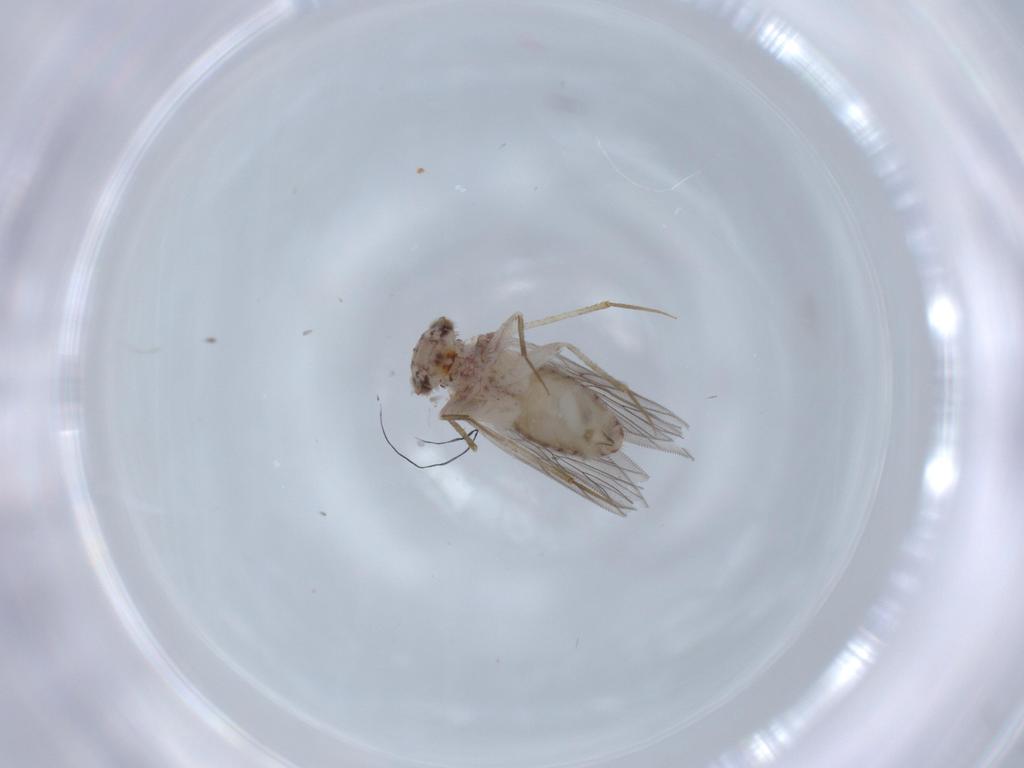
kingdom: Animalia
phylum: Arthropoda
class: Insecta
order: Psocodea
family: Lepidopsocidae
